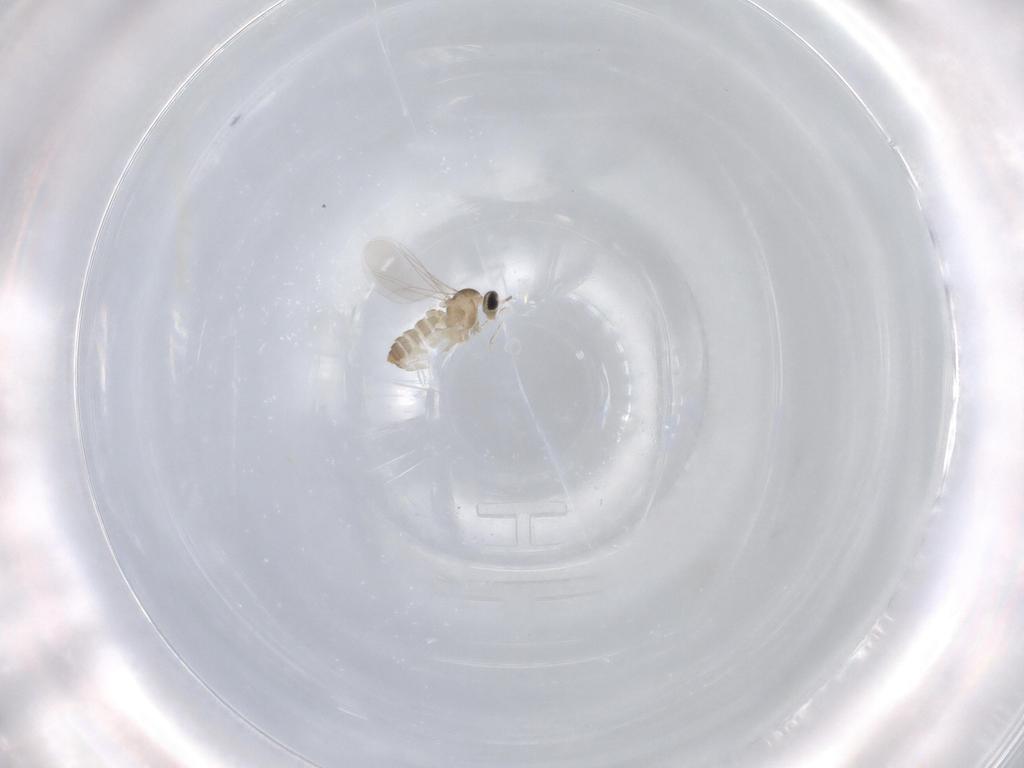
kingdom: Animalia
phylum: Arthropoda
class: Insecta
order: Diptera
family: Cecidomyiidae
